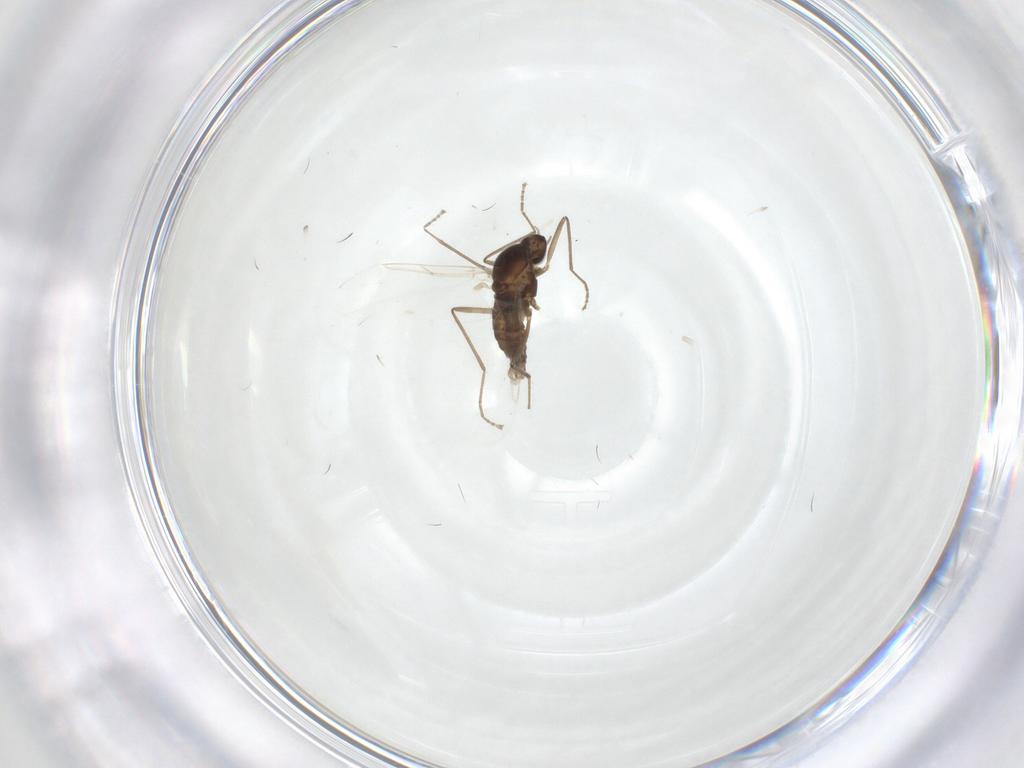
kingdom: Animalia
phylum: Arthropoda
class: Insecta
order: Diptera
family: Cecidomyiidae
